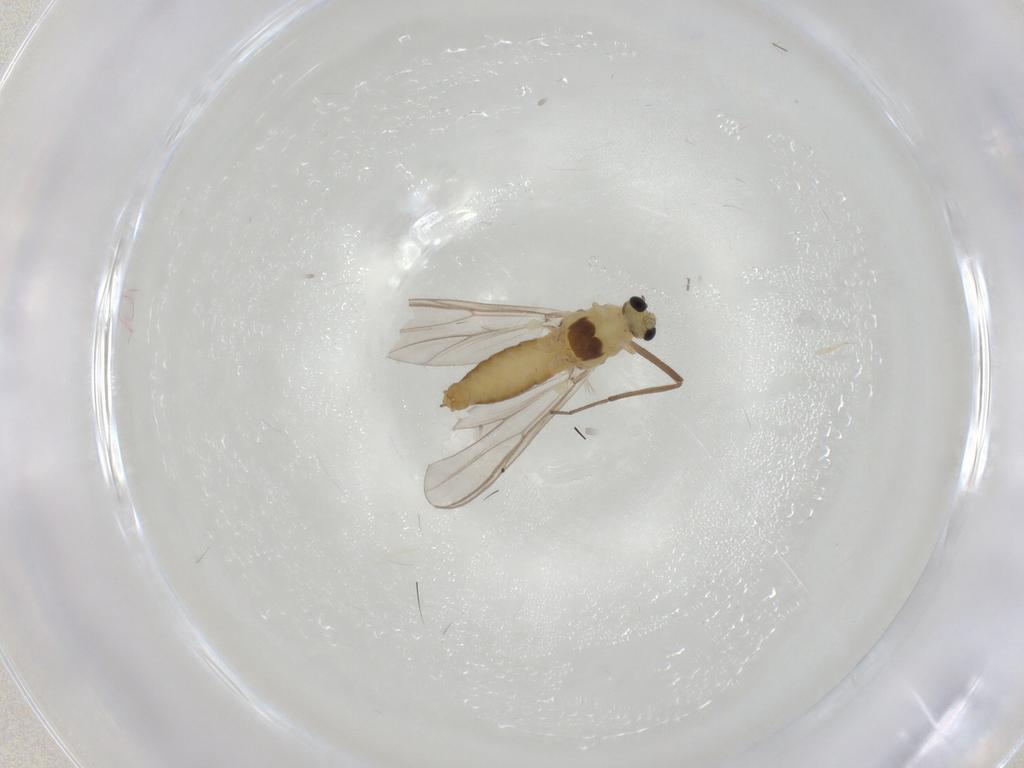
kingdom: Animalia
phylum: Arthropoda
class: Insecta
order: Diptera
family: Chironomidae
